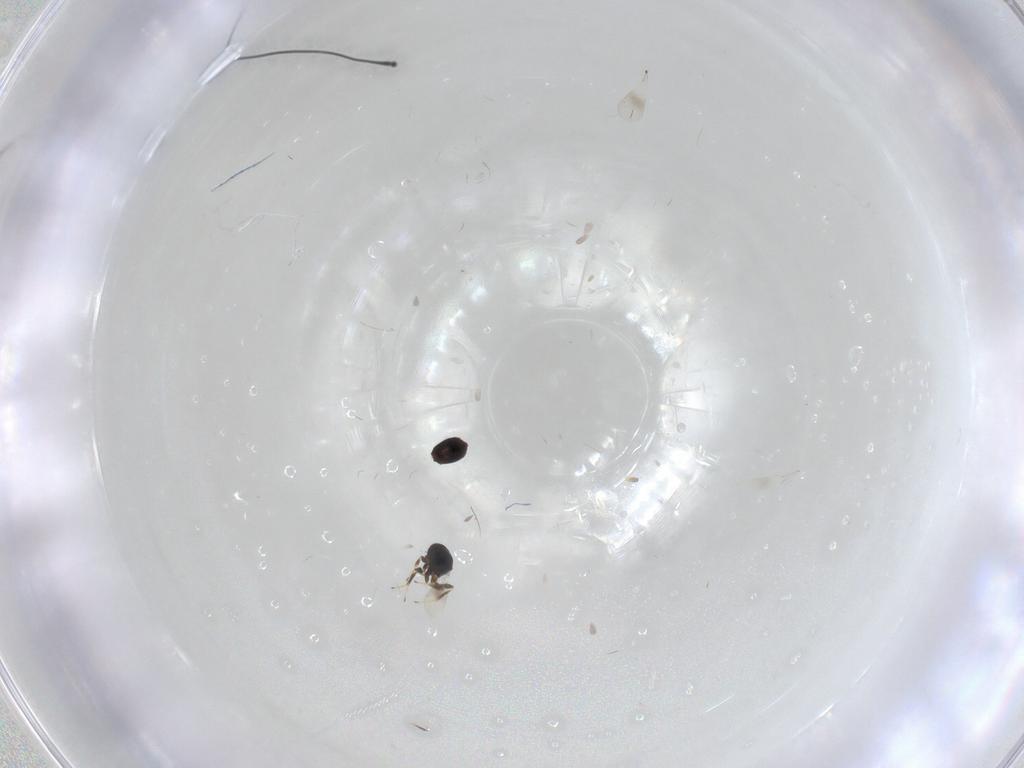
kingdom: Animalia
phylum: Arthropoda
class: Insecta
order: Hymenoptera
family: Platygastridae
